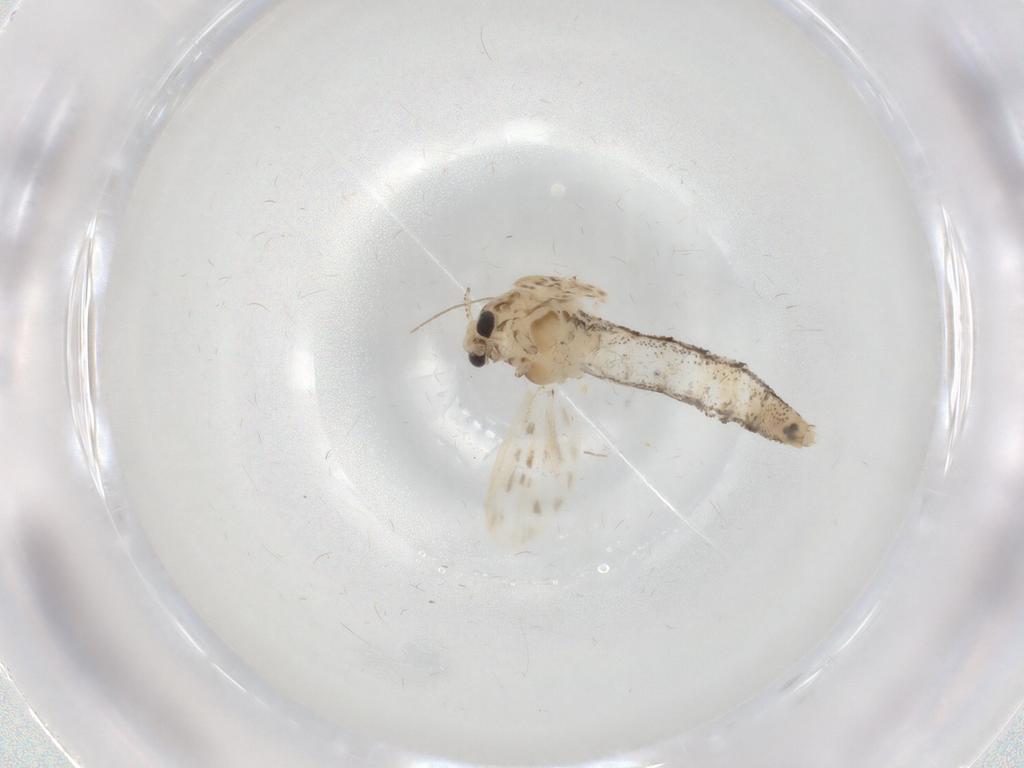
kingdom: Animalia
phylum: Arthropoda
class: Insecta
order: Diptera
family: Chaoboridae
